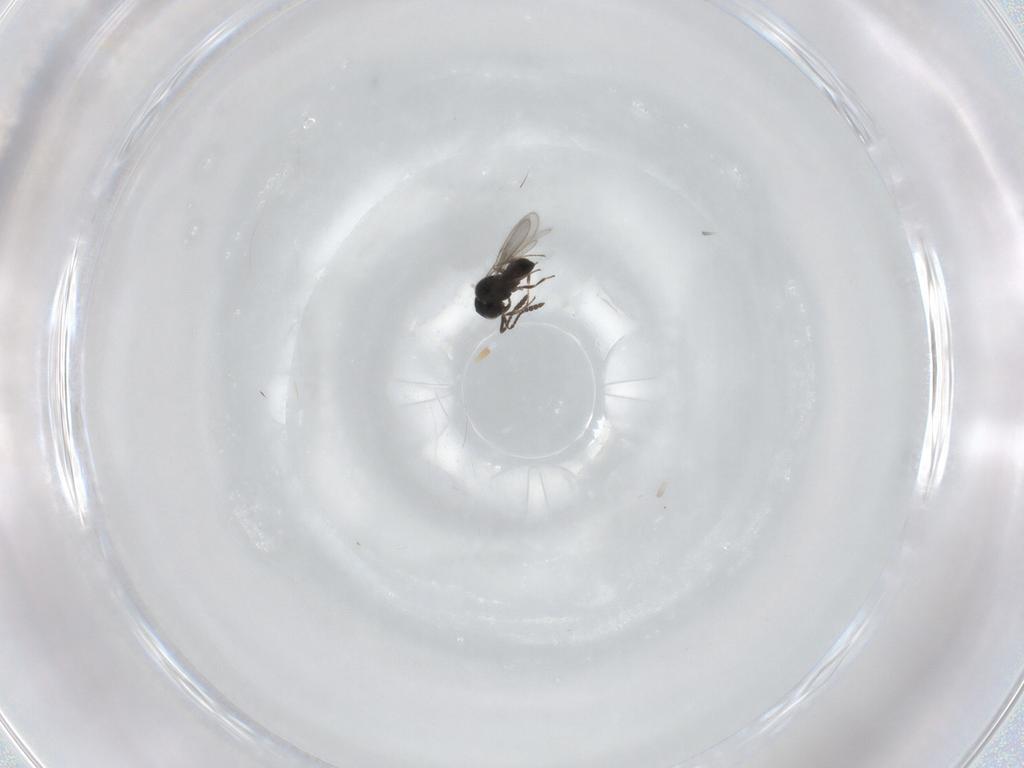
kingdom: Animalia
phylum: Arthropoda
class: Insecta
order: Hymenoptera
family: Scelionidae
